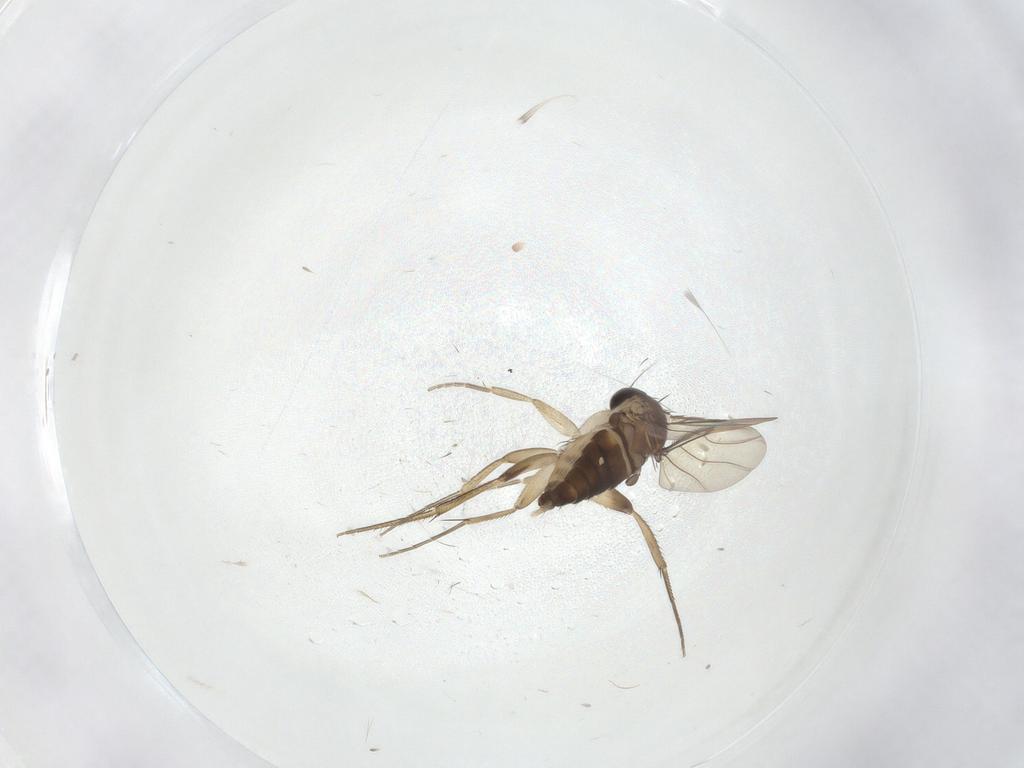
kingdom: Animalia
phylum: Arthropoda
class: Insecta
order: Diptera
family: Phoridae
